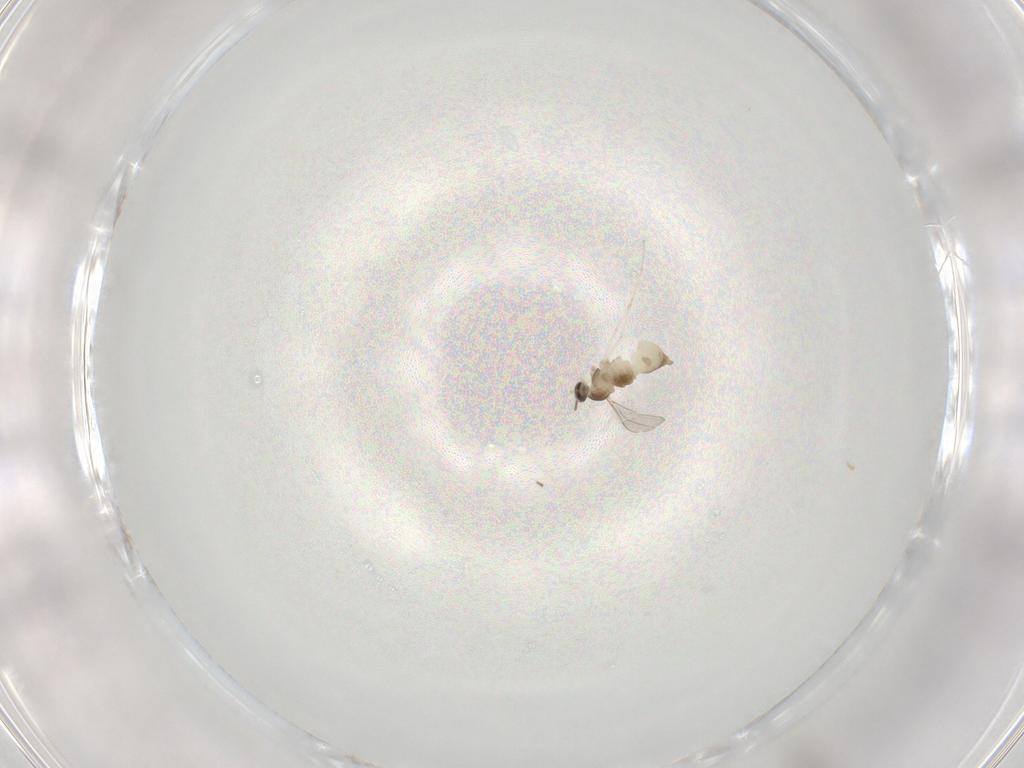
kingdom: Animalia
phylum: Arthropoda
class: Insecta
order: Diptera
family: Cecidomyiidae
